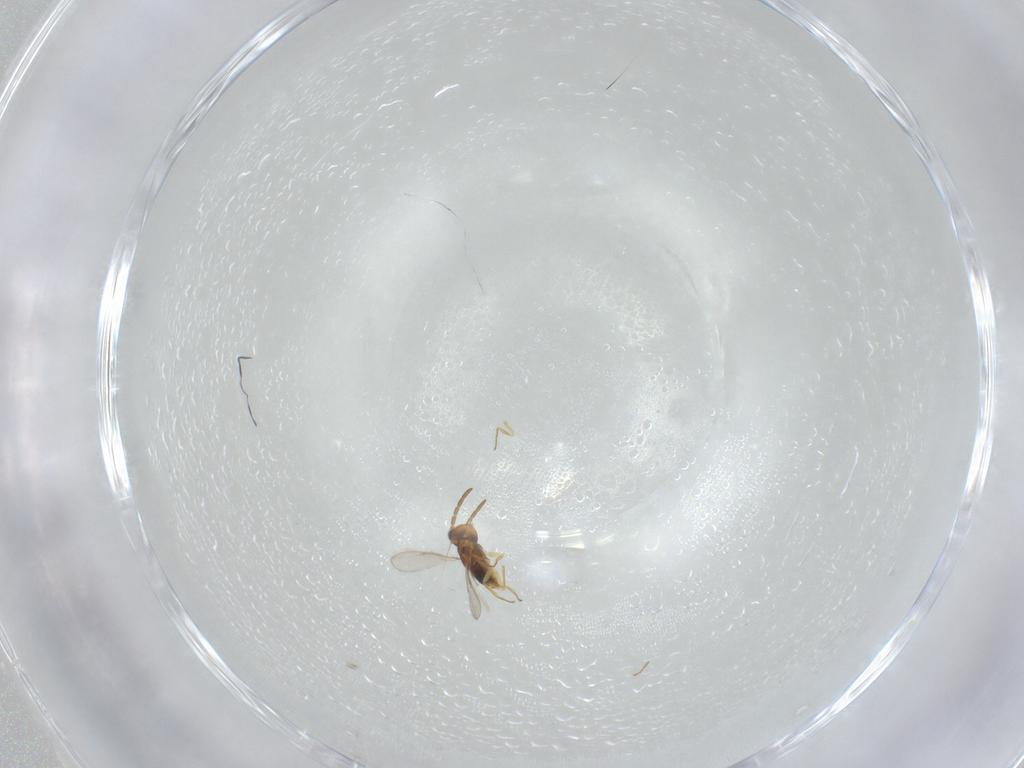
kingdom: Animalia
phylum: Arthropoda
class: Insecta
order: Hymenoptera
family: Aphelinidae
